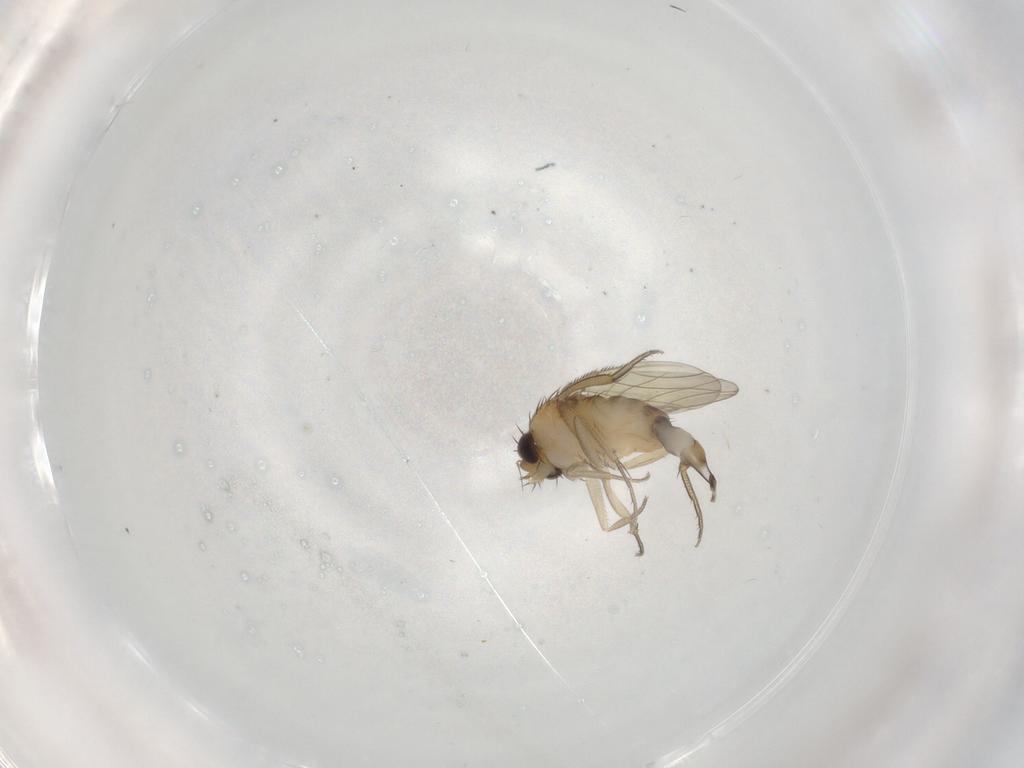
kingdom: Animalia
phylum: Arthropoda
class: Insecta
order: Diptera
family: Phoridae
